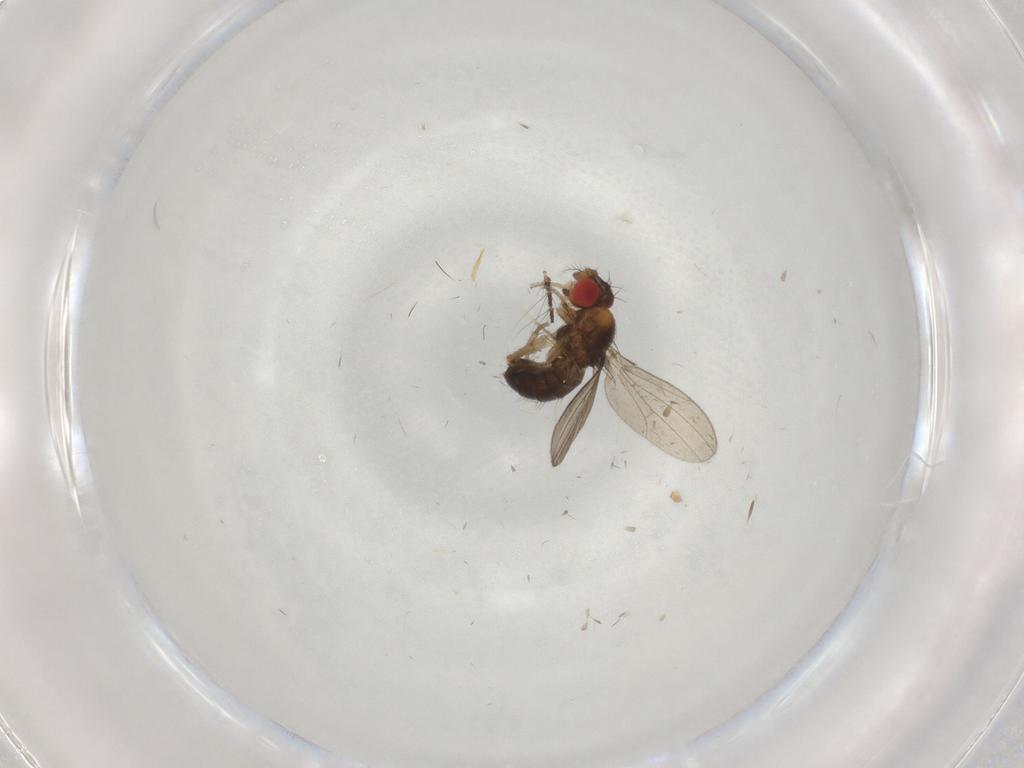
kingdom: Animalia
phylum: Arthropoda
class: Insecta
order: Diptera
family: Drosophilidae
